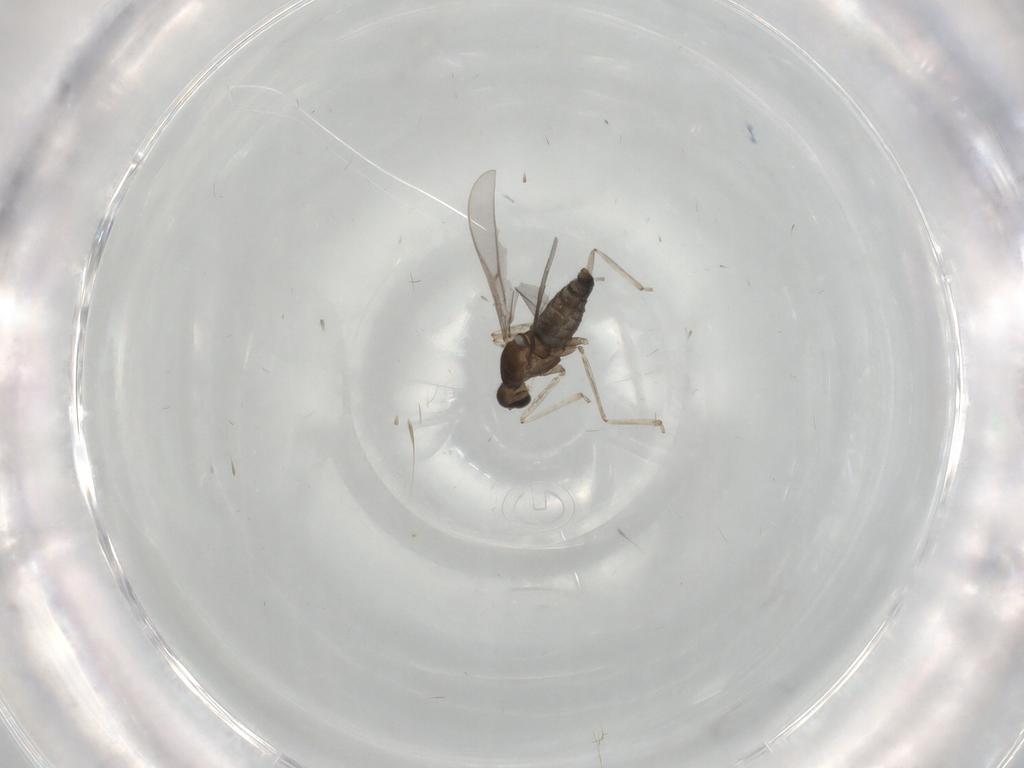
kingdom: Animalia
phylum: Arthropoda
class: Insecta
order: Diptera
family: Cecidomyiidae
